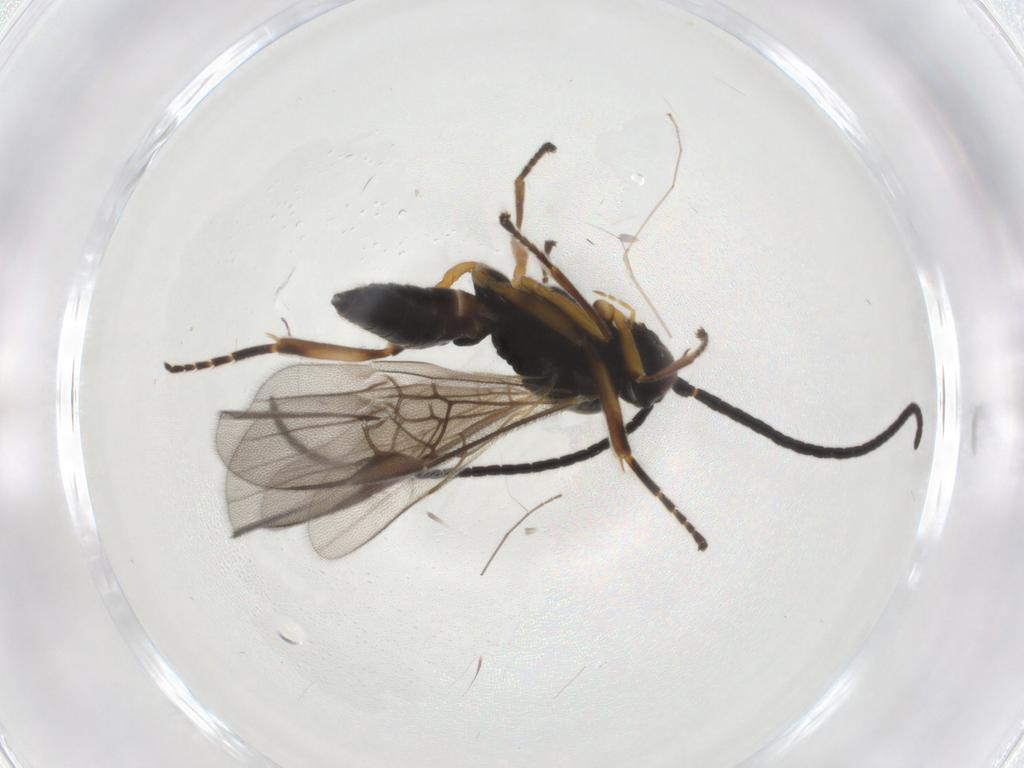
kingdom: Animalia
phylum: Arthropoda
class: Insecta
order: Hymenoptera
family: Braconidae
